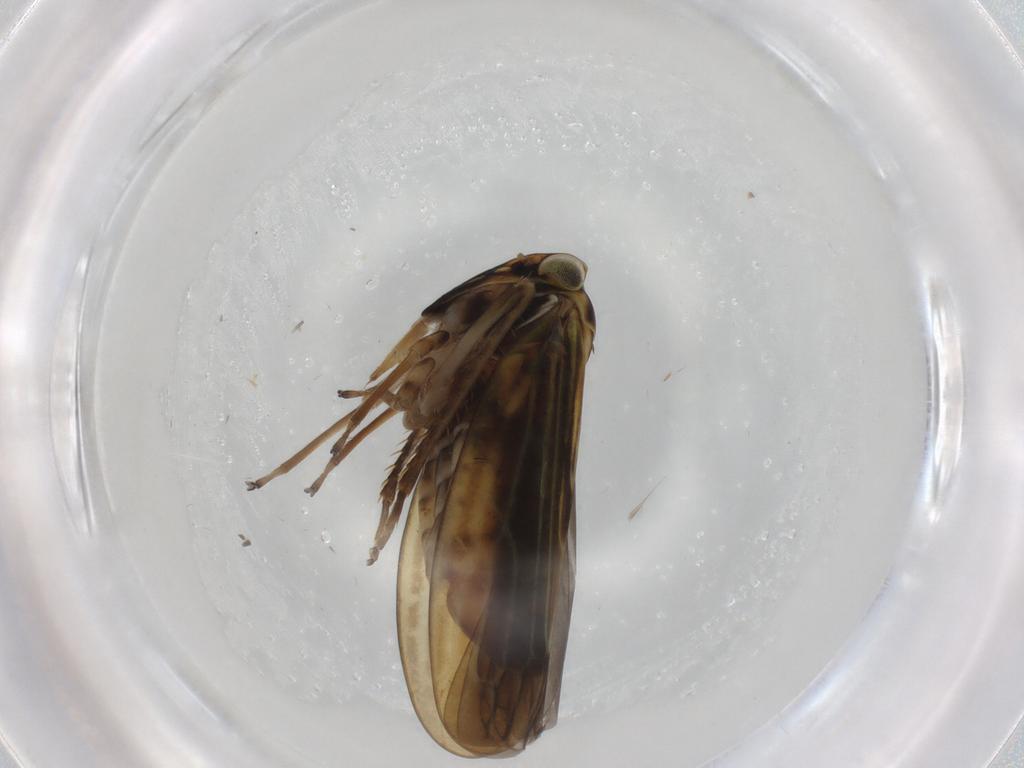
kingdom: Animalia
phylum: Arthropoda
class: Insecta
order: Hemiptera
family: Cicadellidae
